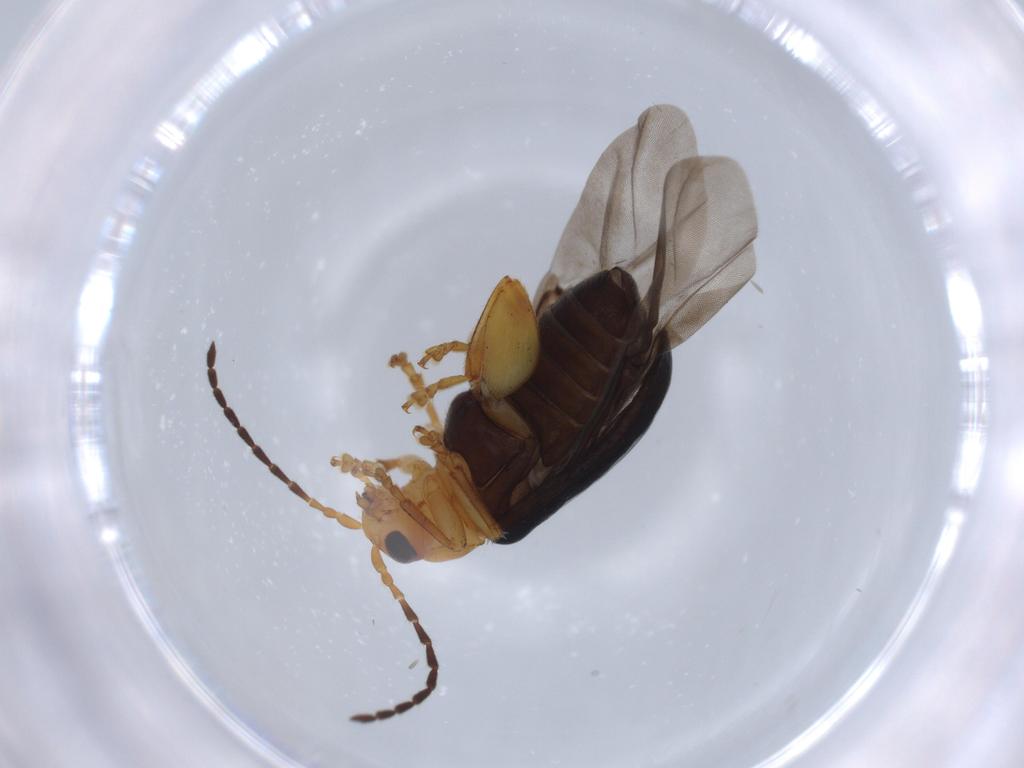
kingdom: Animalia
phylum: Arthropoda
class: Insecta
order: Coleoptera
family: Chrysomelidae
